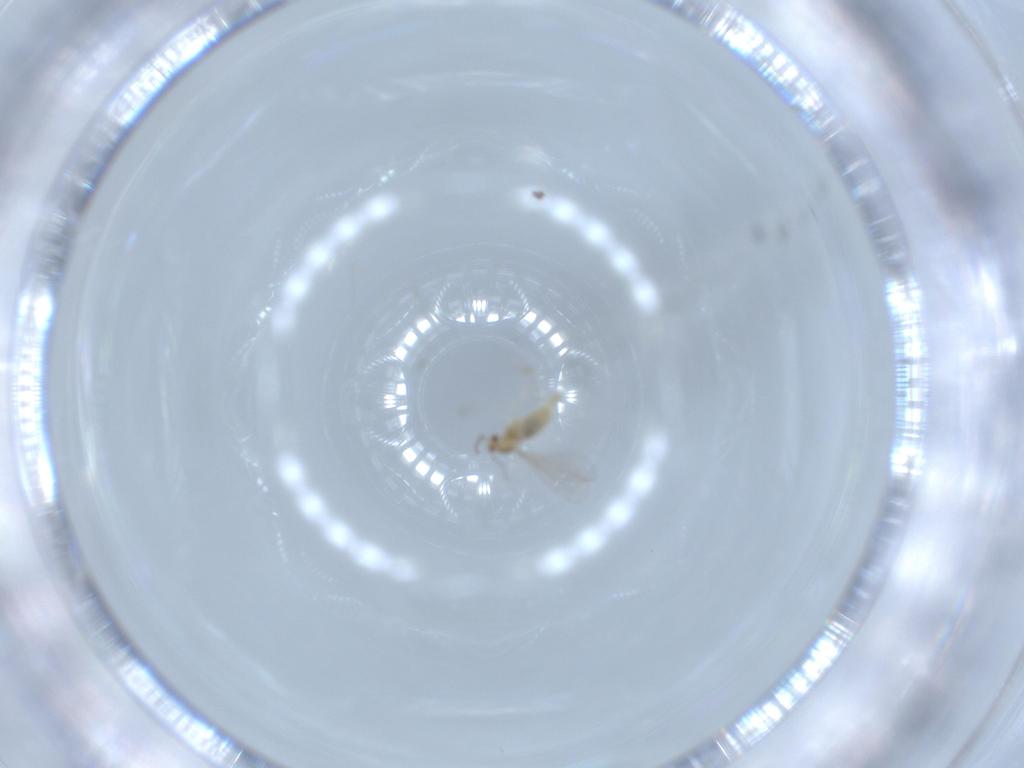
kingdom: Animalia
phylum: Arthropoda
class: Insecta
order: Diptera
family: Cecidomyiidae
